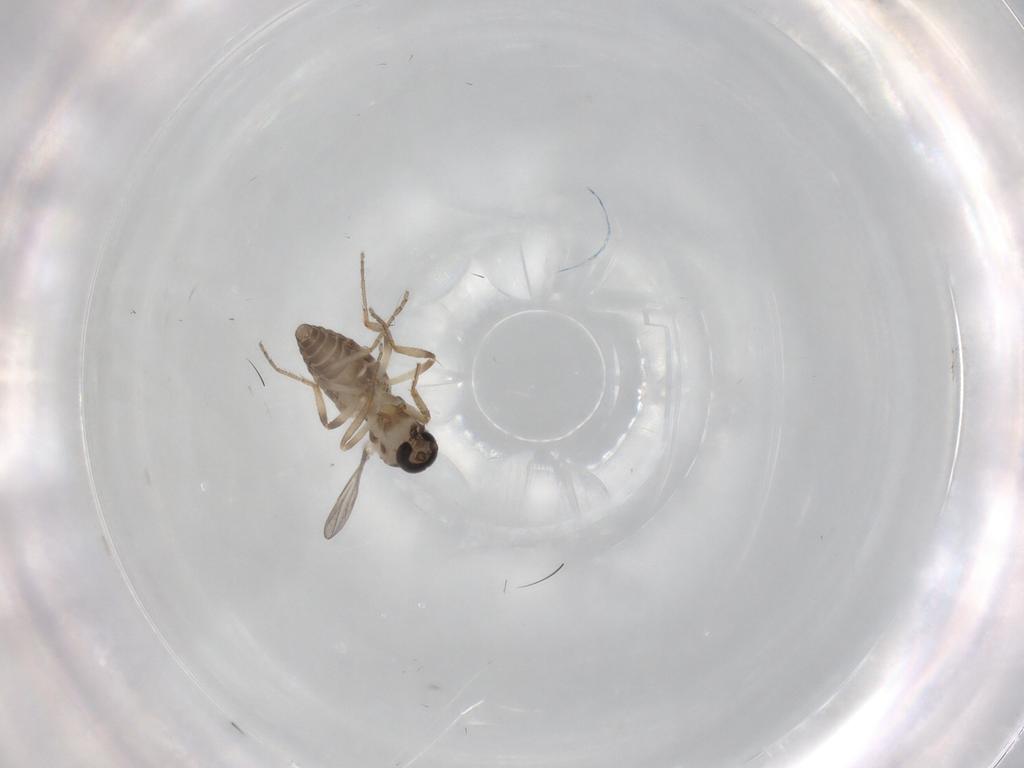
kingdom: Animalia
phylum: Arthropoda
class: Insecta
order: Diptera
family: Ceratopogonidae
